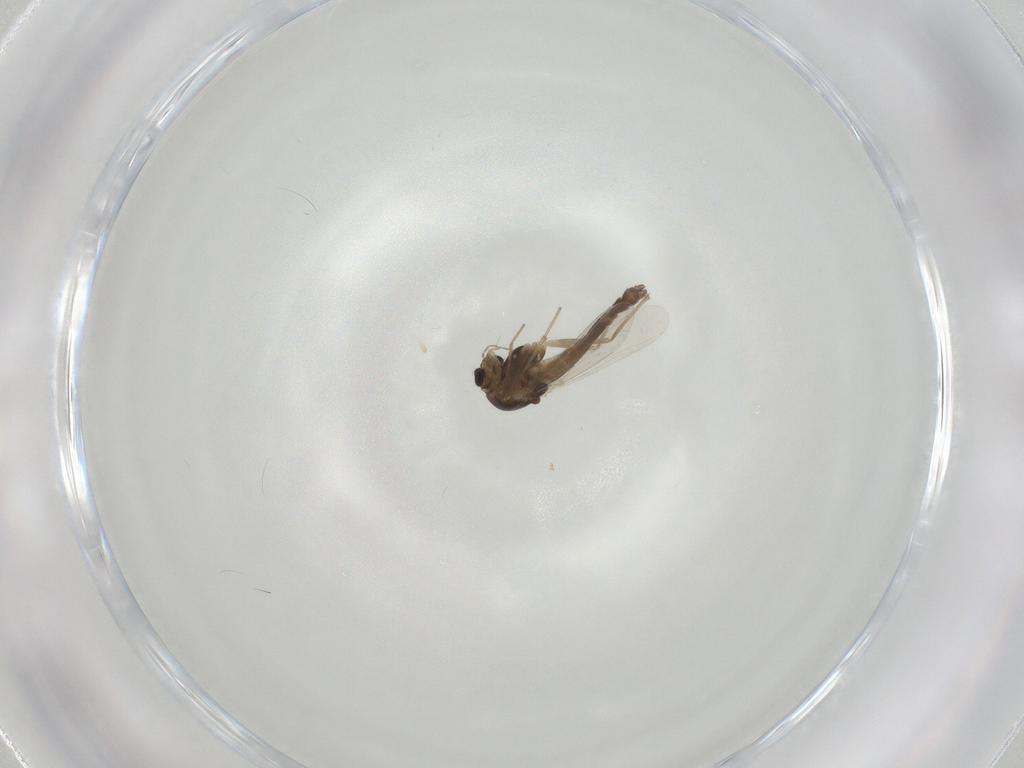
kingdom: Animalia
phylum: Arthropoda
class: Insecta
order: Diptera
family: Chironomidae
